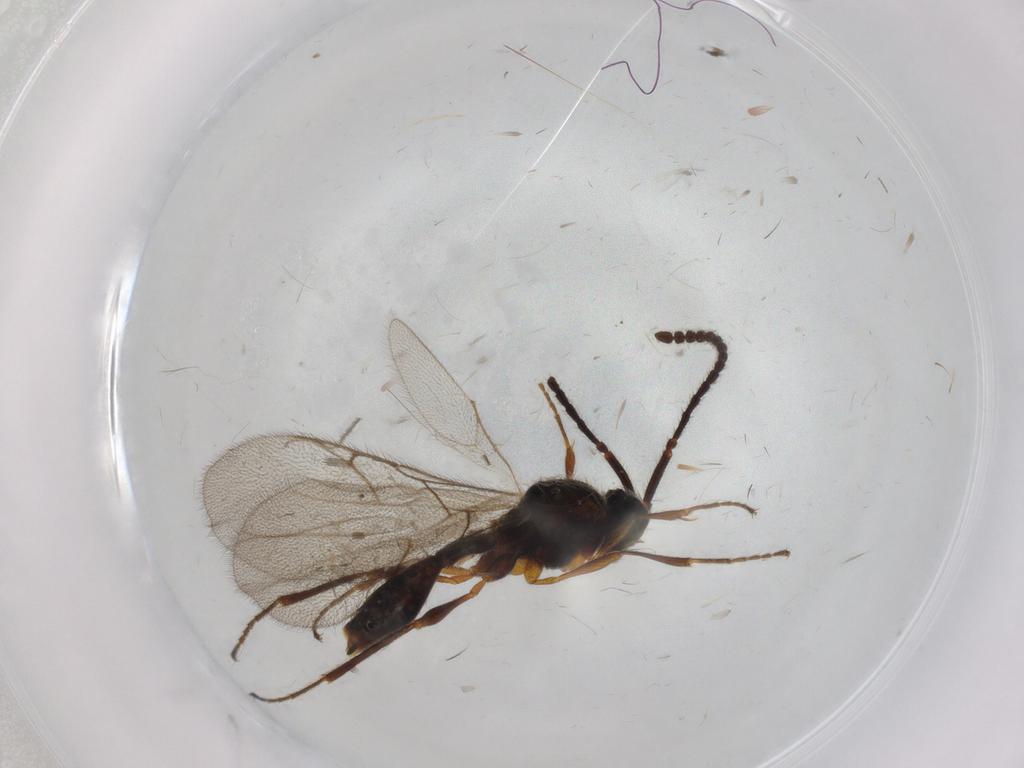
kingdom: Animalia
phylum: Arthropoda
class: Insecta
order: Hymenoptera
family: Diapriidae
